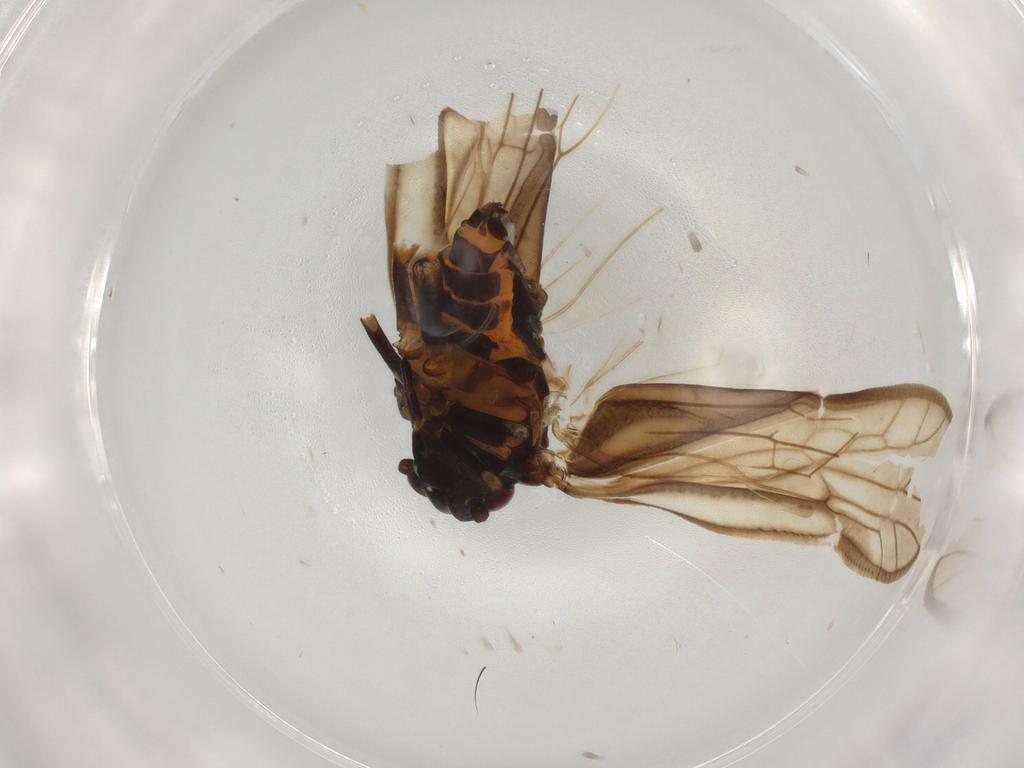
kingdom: Animalia
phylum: Arthropoda
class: Insecta
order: Hemiptera
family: Meenoplidae
